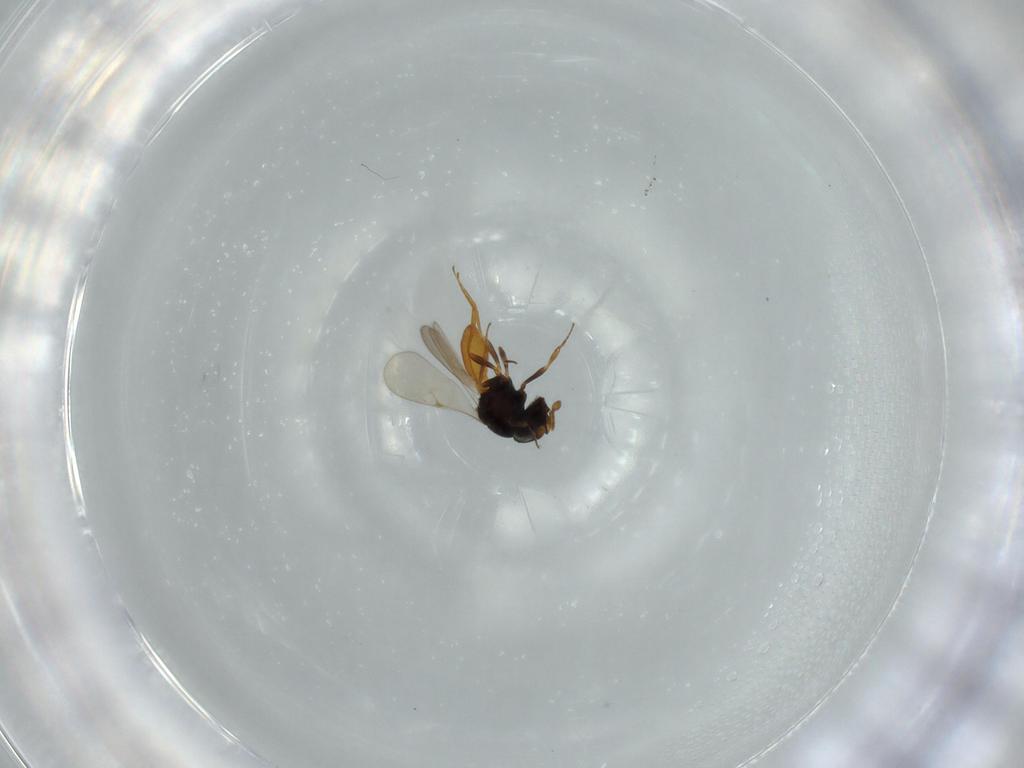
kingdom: Animalia
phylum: Arthropoda
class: Insecta
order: Hymenoptera
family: Scelionidae
